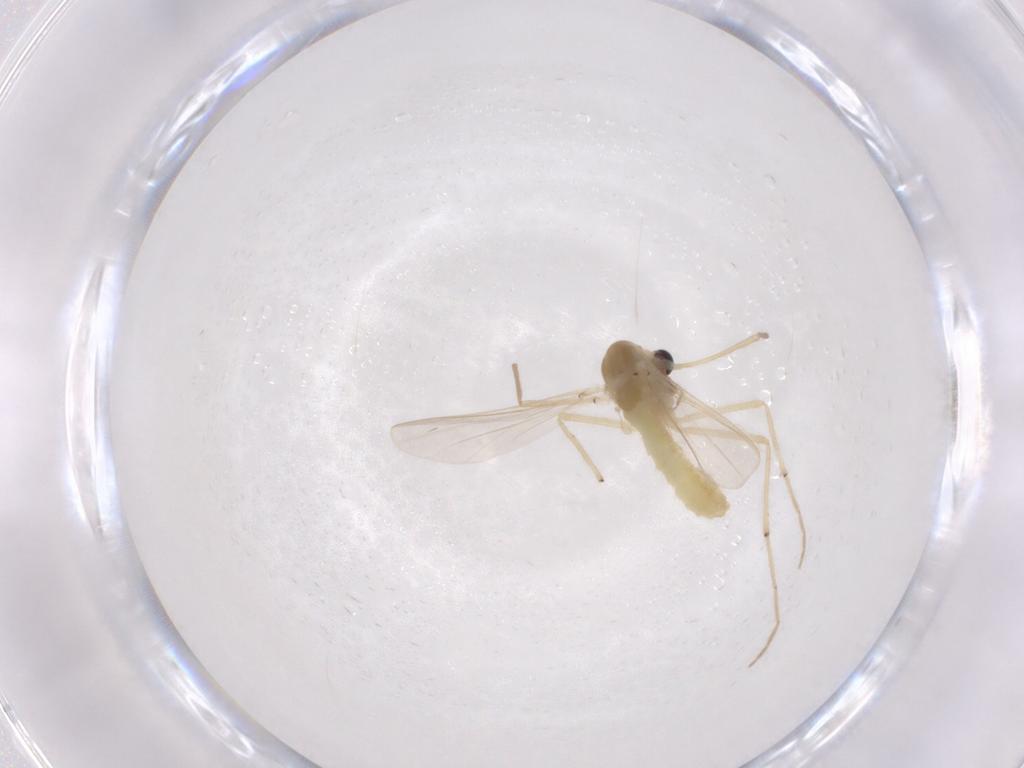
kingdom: Animalia
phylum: Arthropoda
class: Insecta
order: Diptera
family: Chironomidae
